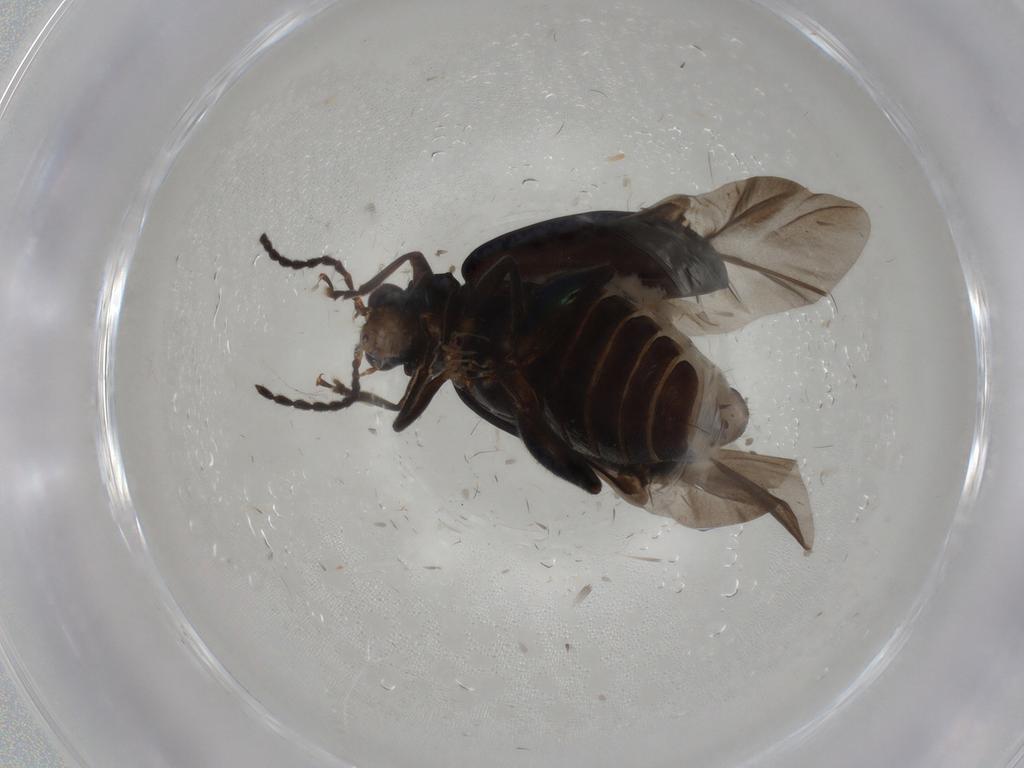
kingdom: Animalia
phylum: Arthropoda
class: Insecta
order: Coleoptera
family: Chrysomelidae
